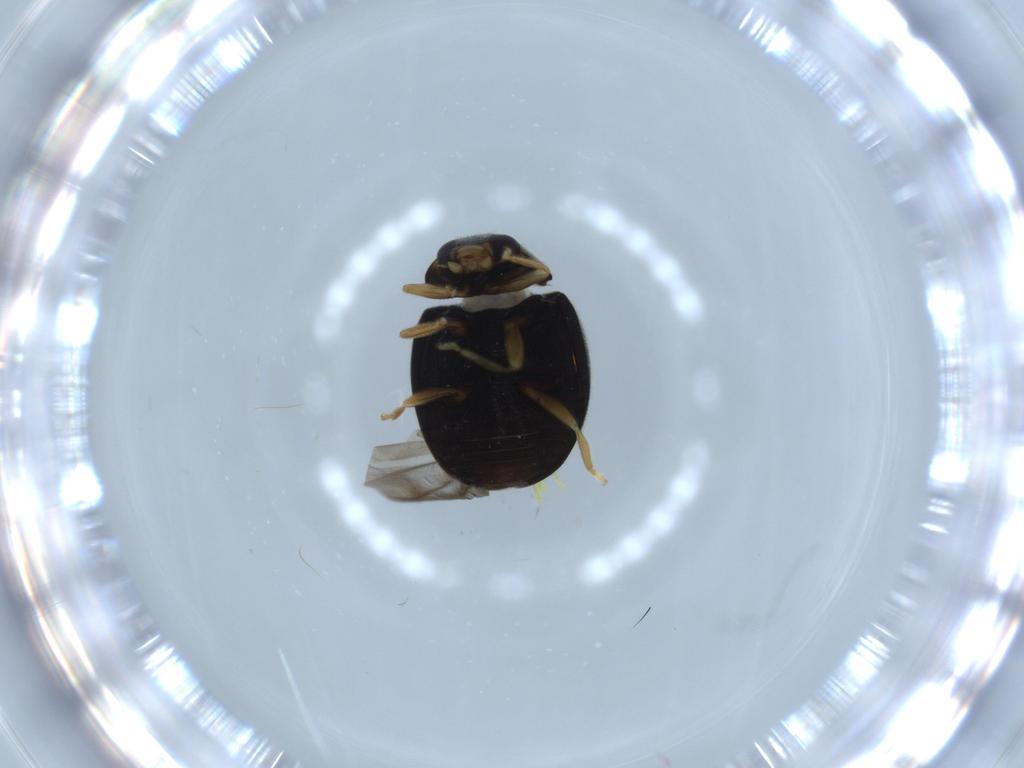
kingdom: Animalia
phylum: Arthropoda
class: Insecta
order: Coleoptera
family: Coccinellidae
